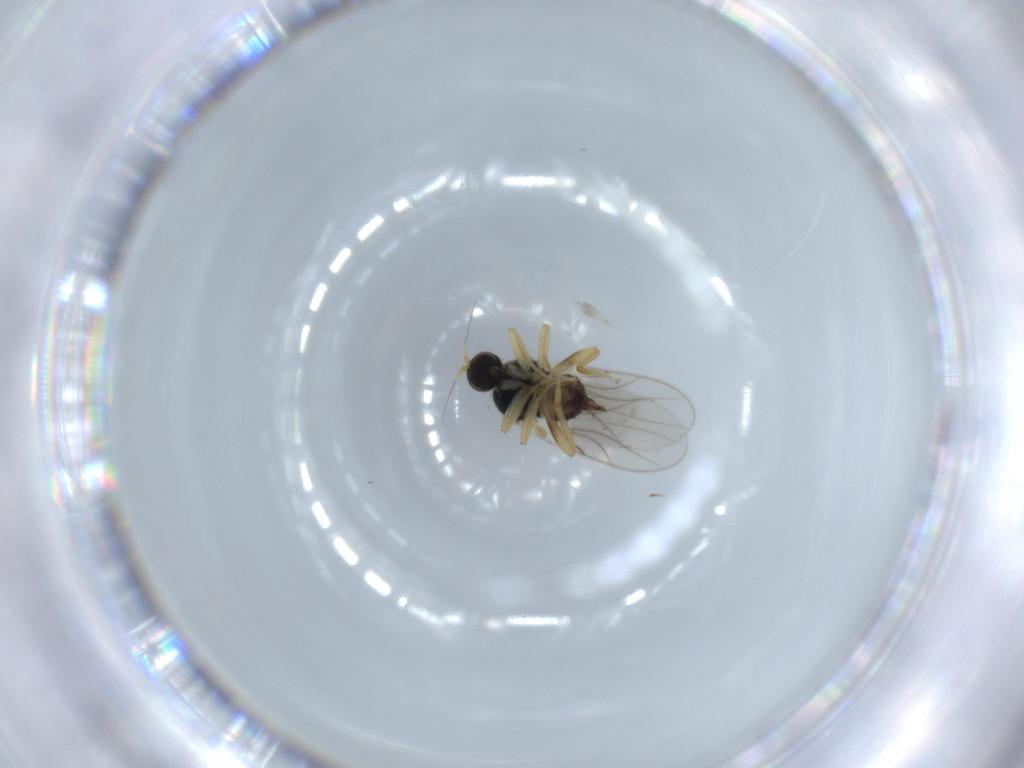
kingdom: Animalia
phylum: Arthropoda
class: Insecta
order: Diptera
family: Hybotidae
